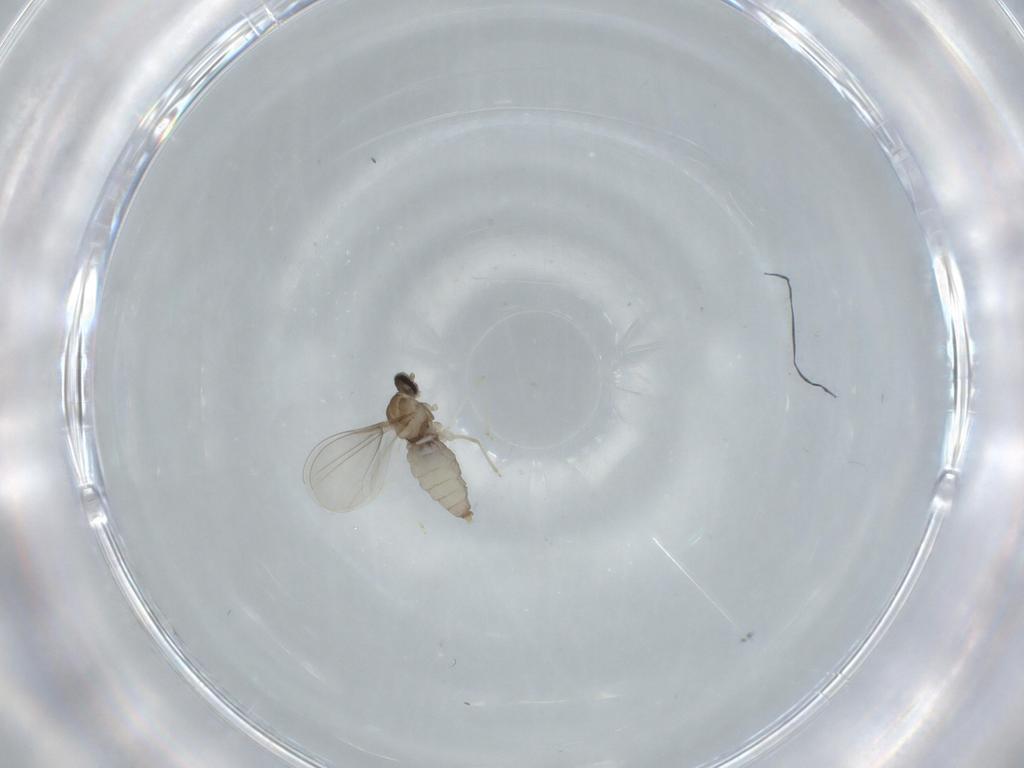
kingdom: Animalia
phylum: Arthropoda
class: Insecta
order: Diptera
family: Cecidomyiidae
